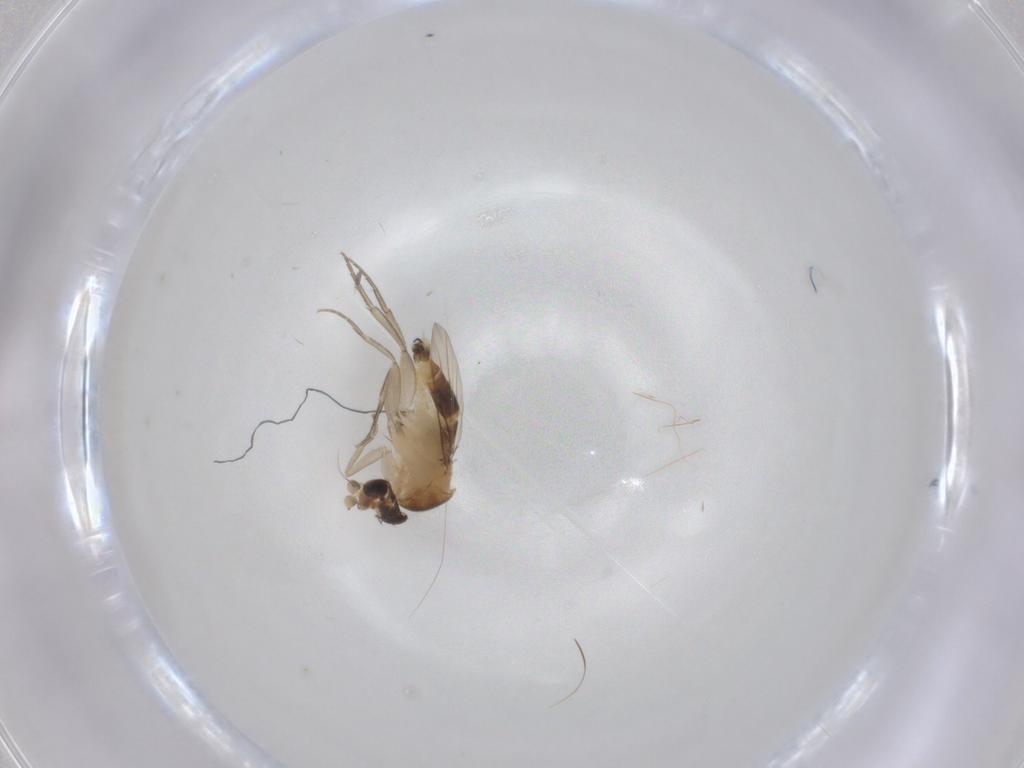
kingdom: Animalia
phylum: Arthropoda
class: Insecta
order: Diptera
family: Phoridae
